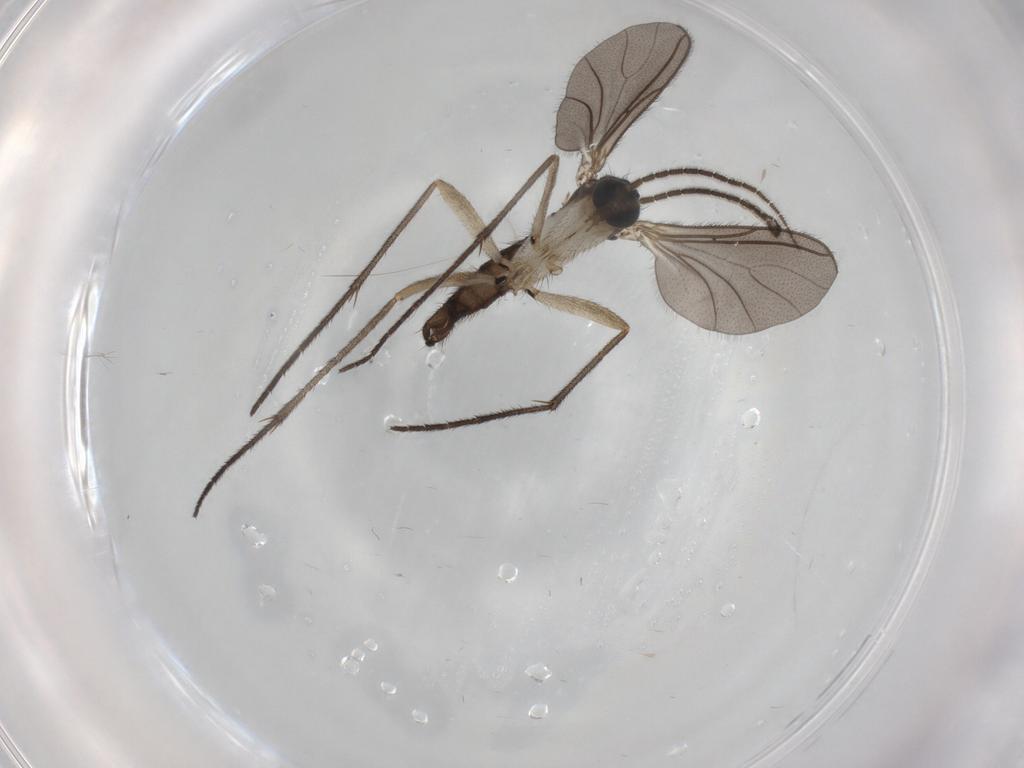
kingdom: Animalia
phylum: Arthropoda
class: Insecta
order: Diptera
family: Sciaridae
